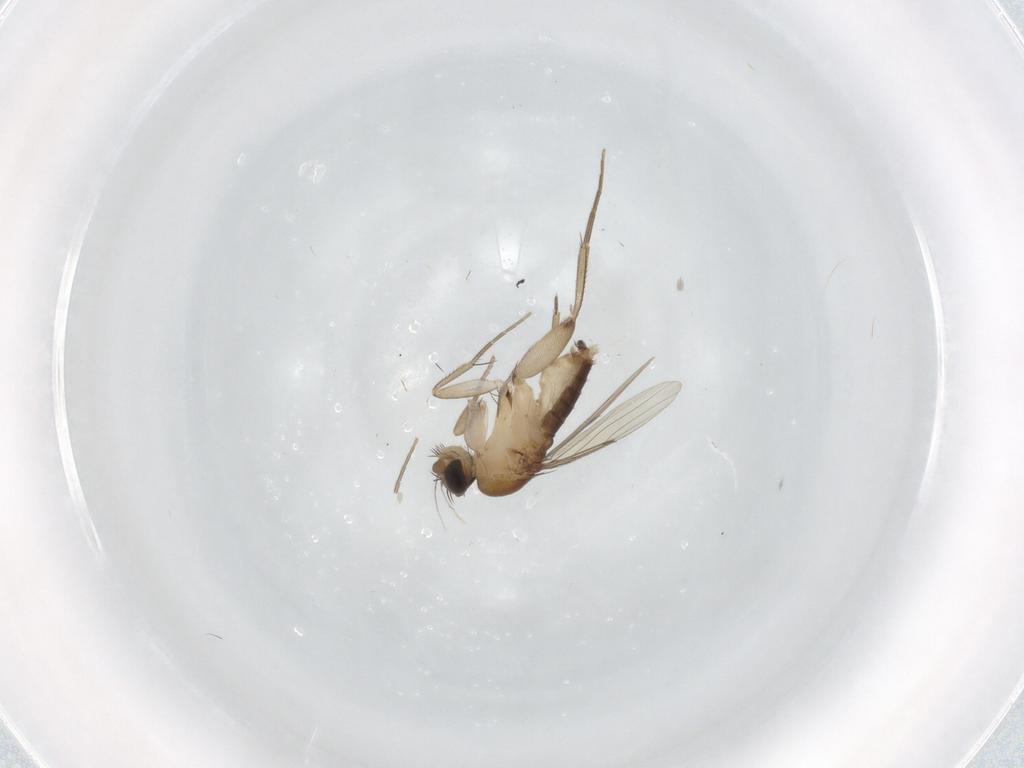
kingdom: Animalia
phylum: Arthropoda
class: Insecta
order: Diptera
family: Phoridae
